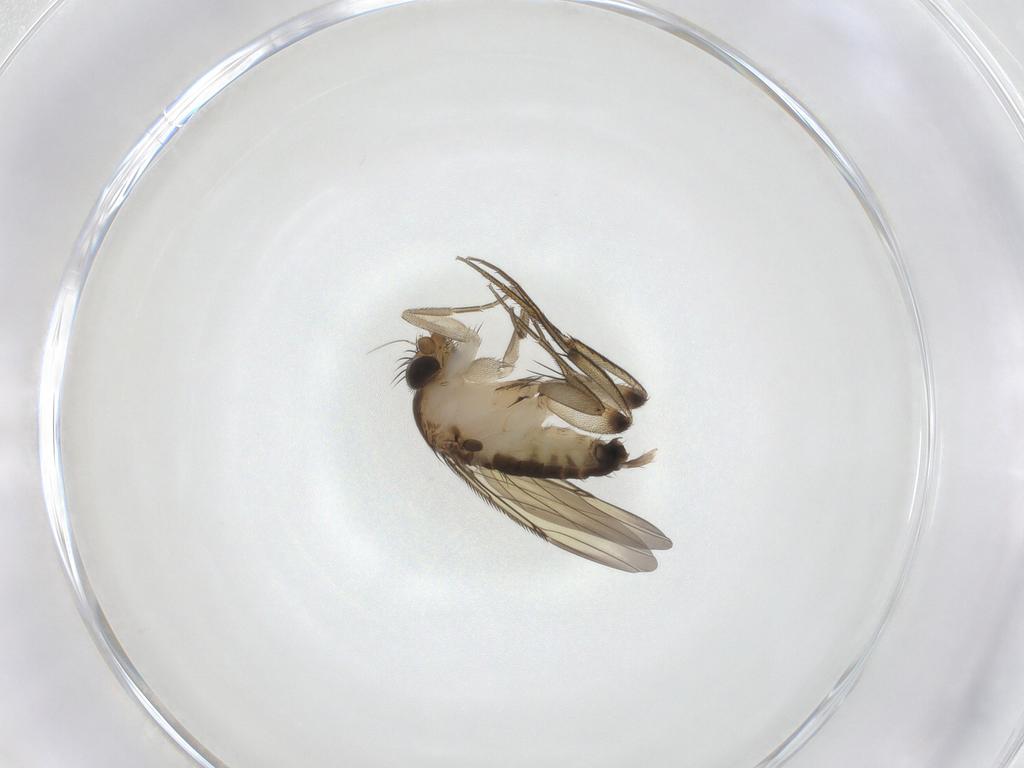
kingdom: Animalia
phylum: Arthropoda
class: Insecta
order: Diptera
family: Phoridae
